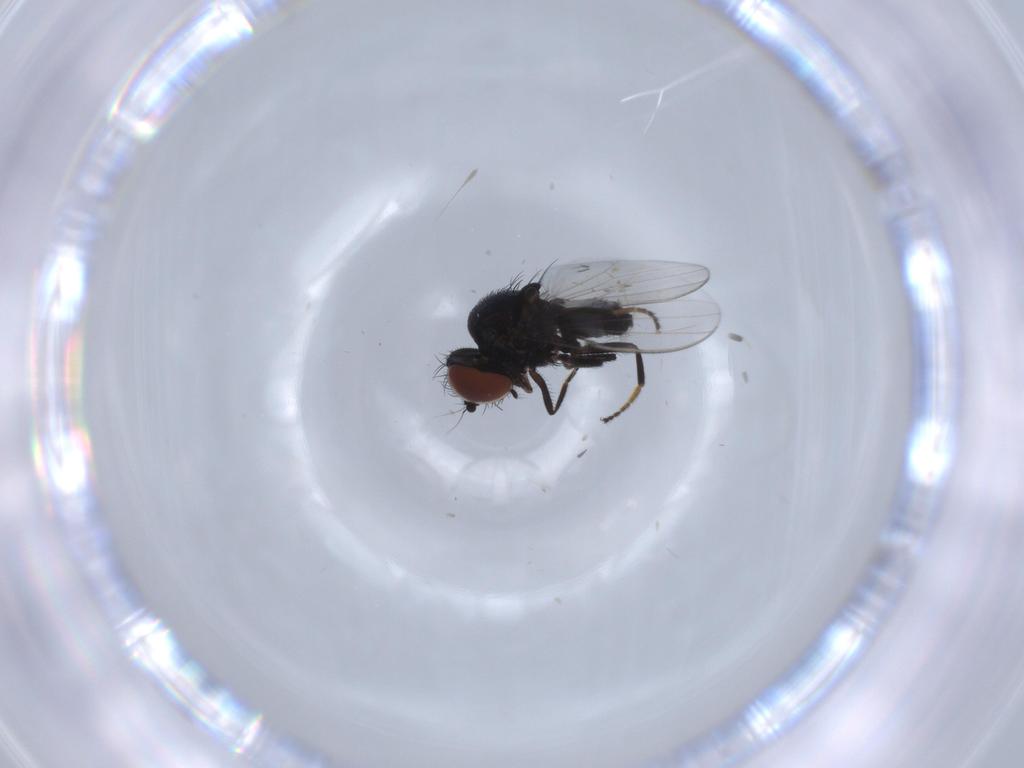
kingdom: Animalia
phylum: Arthropoda
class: Insecta
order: Diptera
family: Milichiidae
